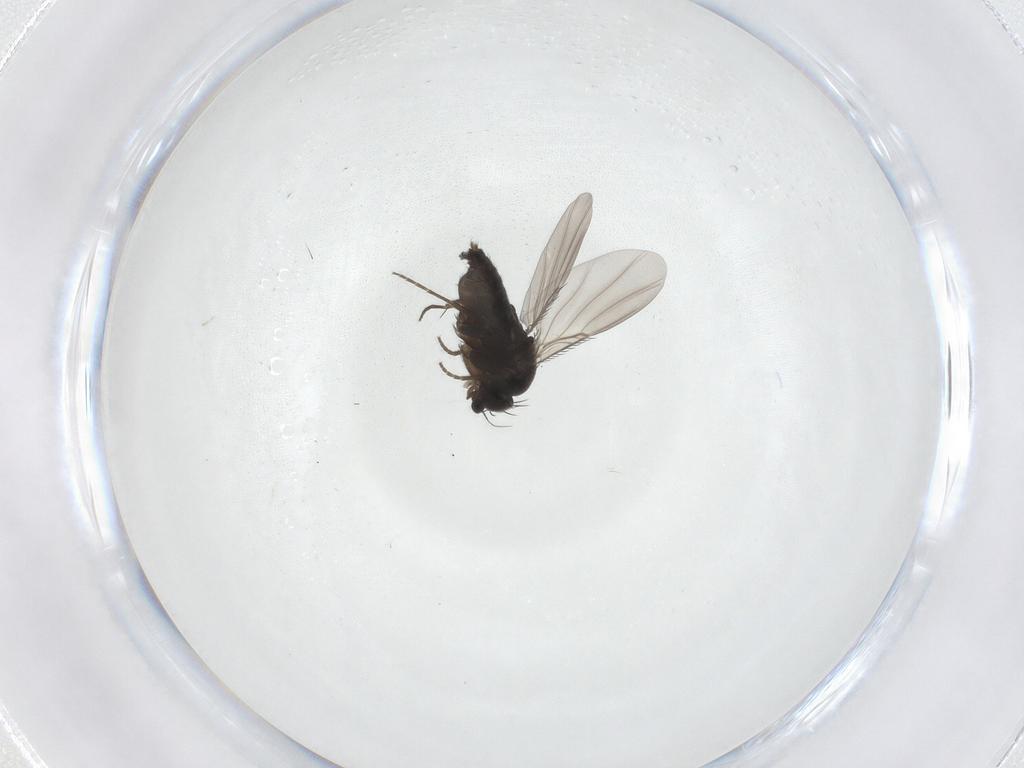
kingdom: Animalia
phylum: Arthropoda
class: Insecta
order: Diptera
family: Phoridae
